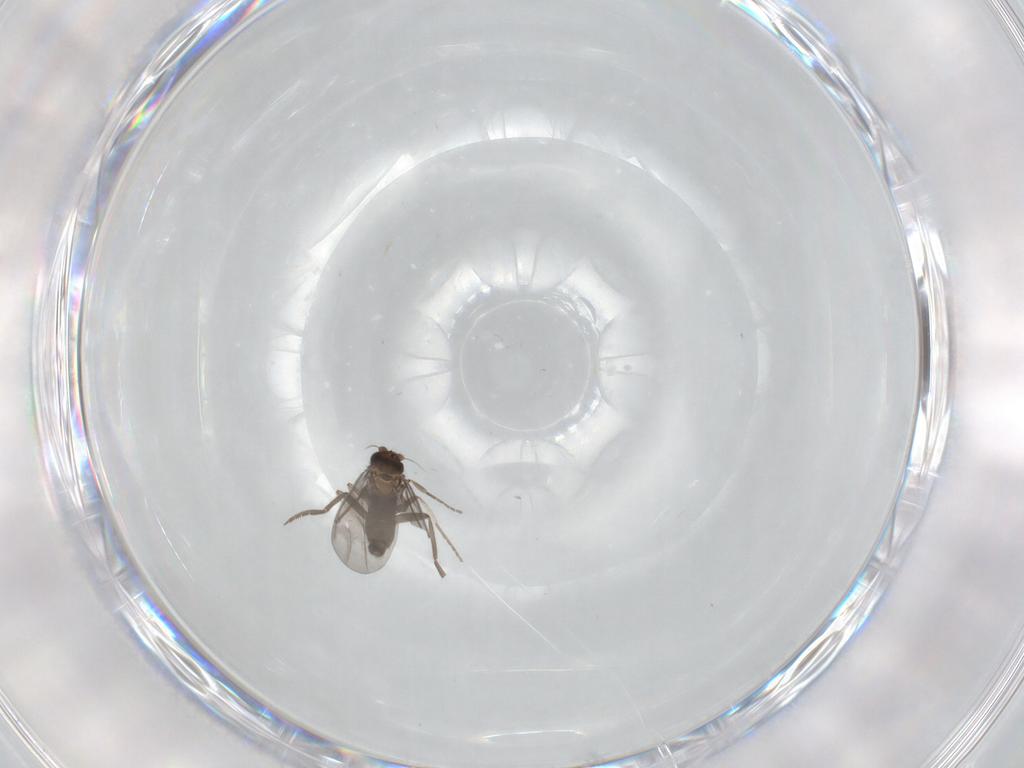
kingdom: Animalia
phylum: Arthropoda
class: Insecta
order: Diptera
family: Phoridae
